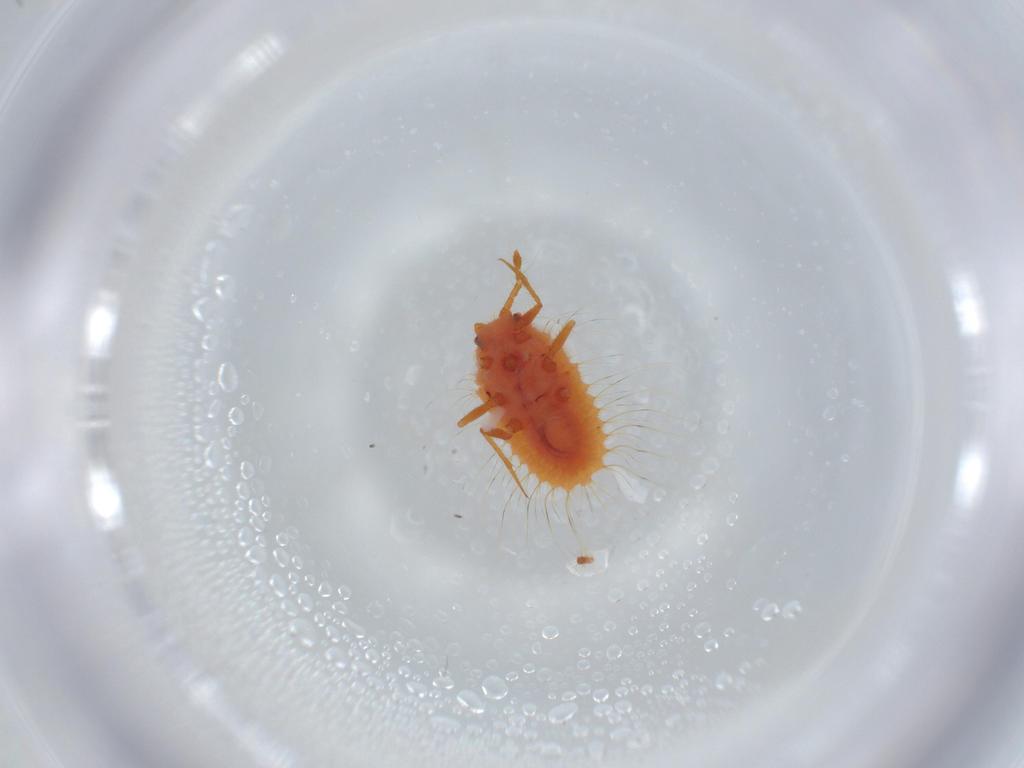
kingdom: Animalia
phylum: Arthropoda
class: Insecta
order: Hemiptera
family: Coccoidea_incertae_sedis
